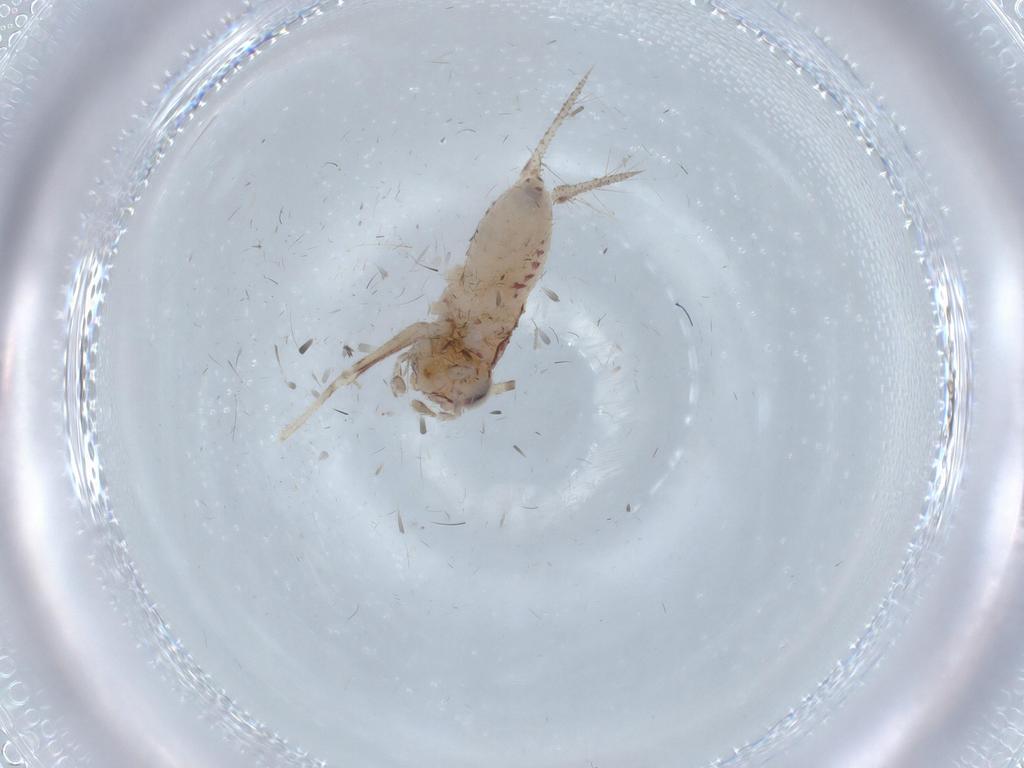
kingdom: Animalia
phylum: Arthropoda
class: Insecta
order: Orthoptera
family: Trigonidiidae
